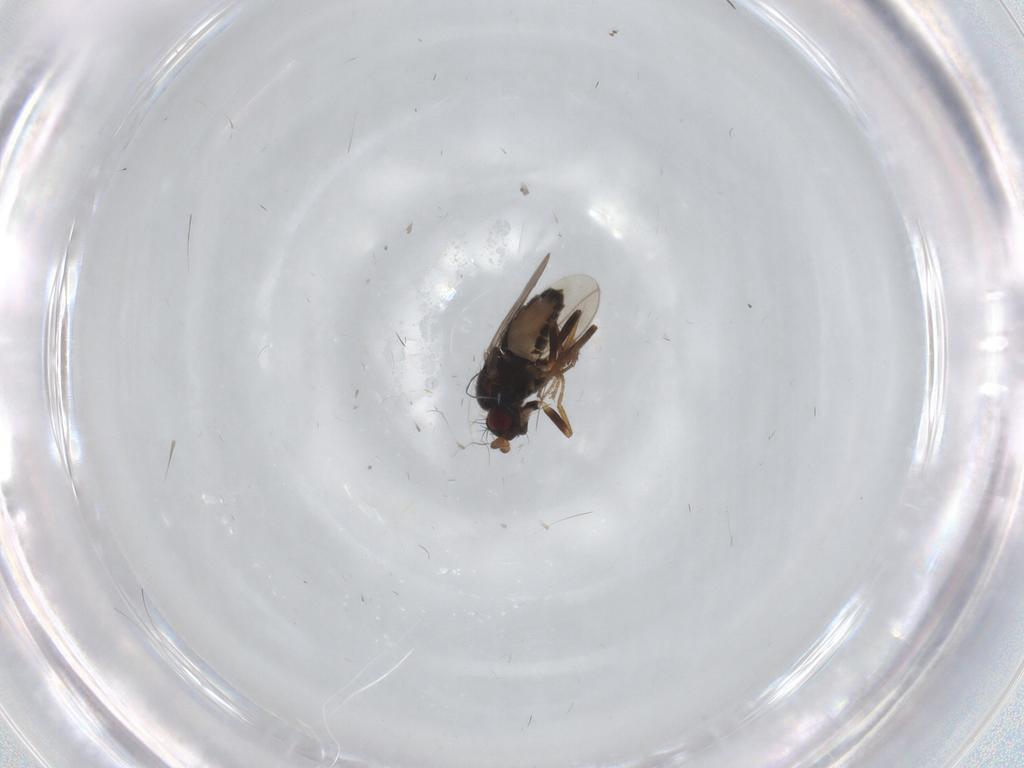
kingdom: Animalia
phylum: Arthropoda
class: Insecta
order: Diptera
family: Sphaeroceridae
